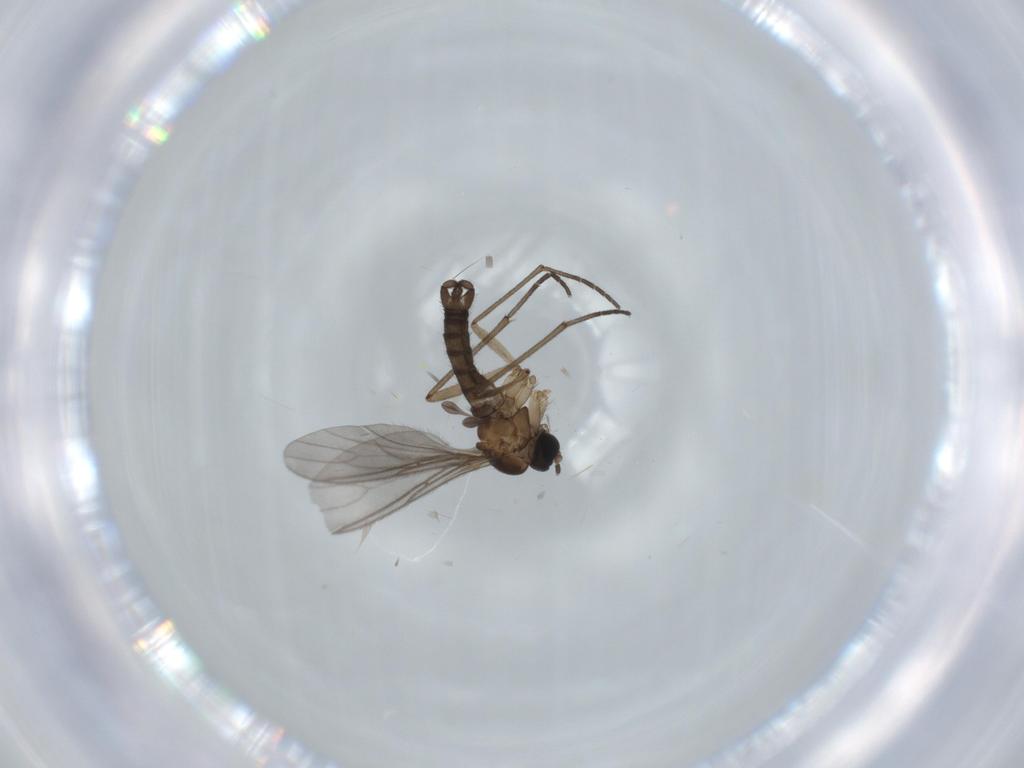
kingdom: Animalia
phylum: Arthropoda
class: Insecta
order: Diptera
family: Sciaridae
